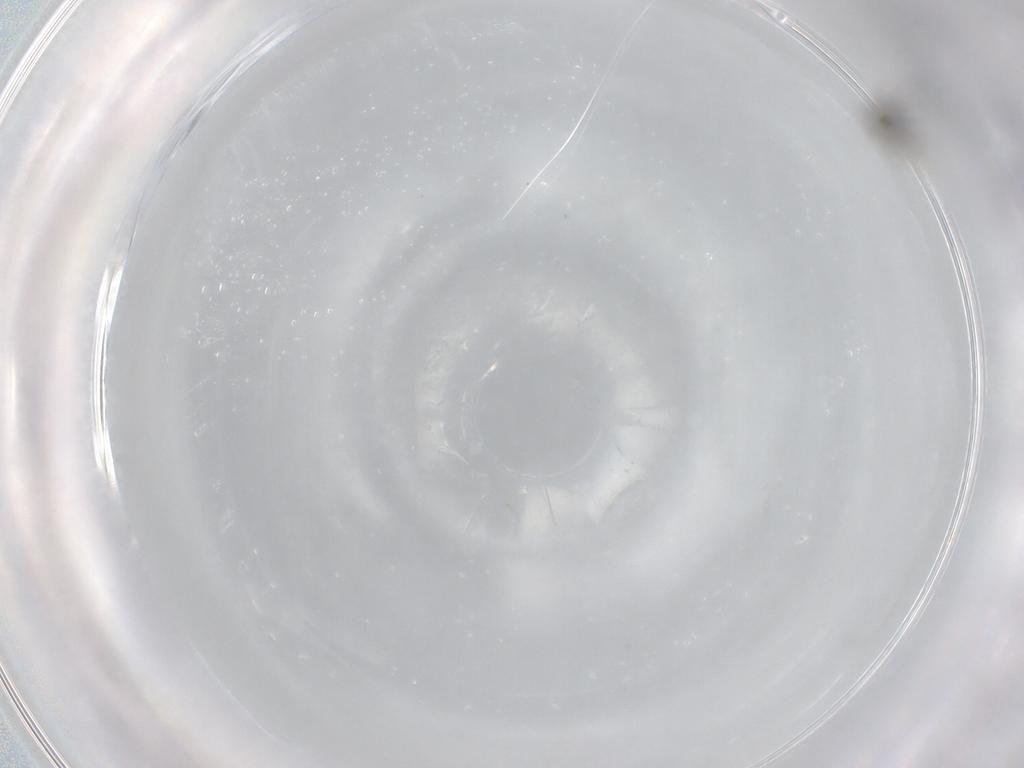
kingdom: Animalia
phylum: Arthropoda
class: Insecta
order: Diptera
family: Cecidomyiidae
